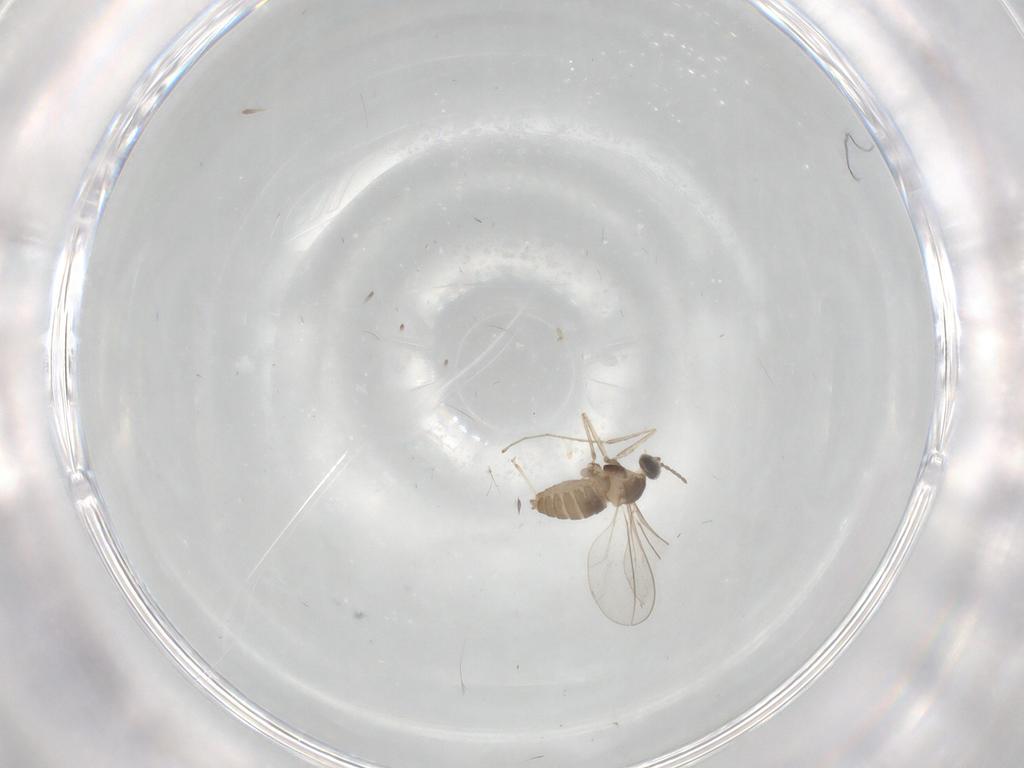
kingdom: Animalia
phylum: Arthropoda
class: Insecta
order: Diptera
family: Cecidomyiidae
